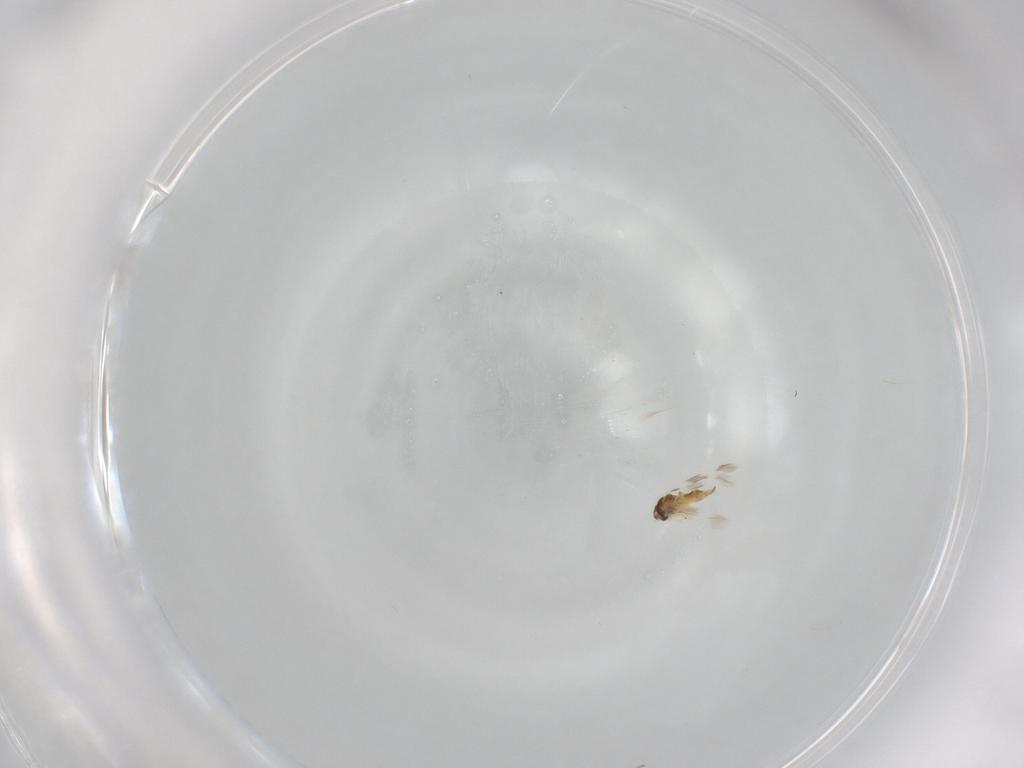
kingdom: Animalia
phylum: Arthropoda
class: Insecta
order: Hemiptera
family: Aleyrodidae
